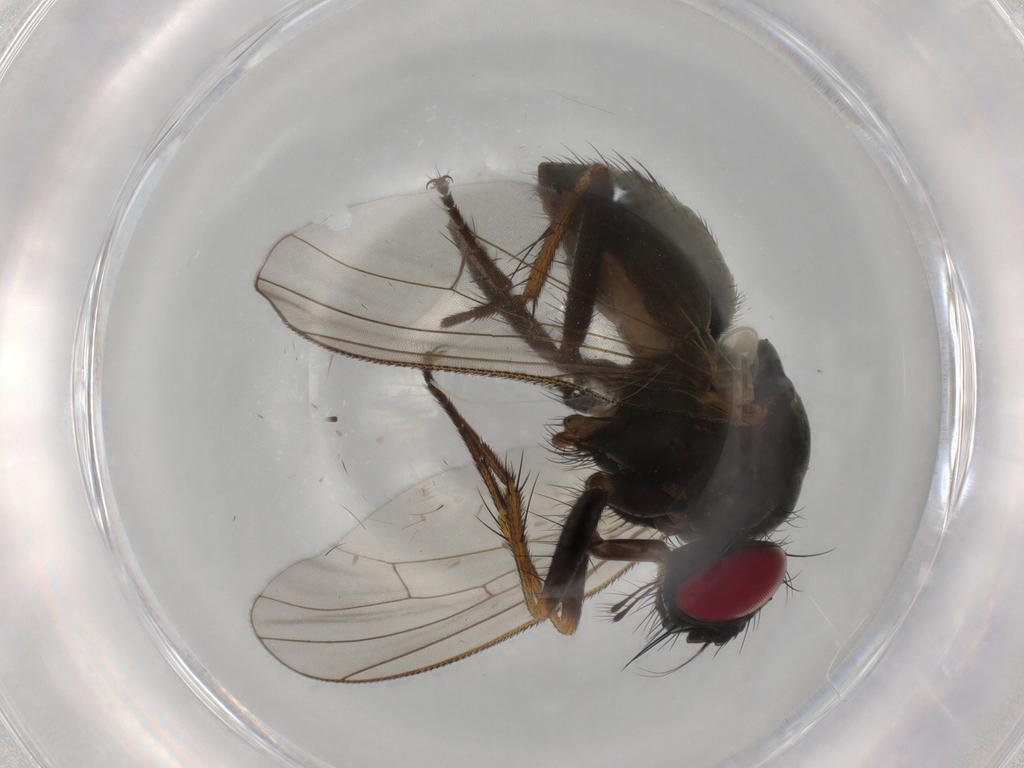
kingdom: Animalia
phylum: Arthropoda
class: Insecta
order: Diptera
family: Muscidae
